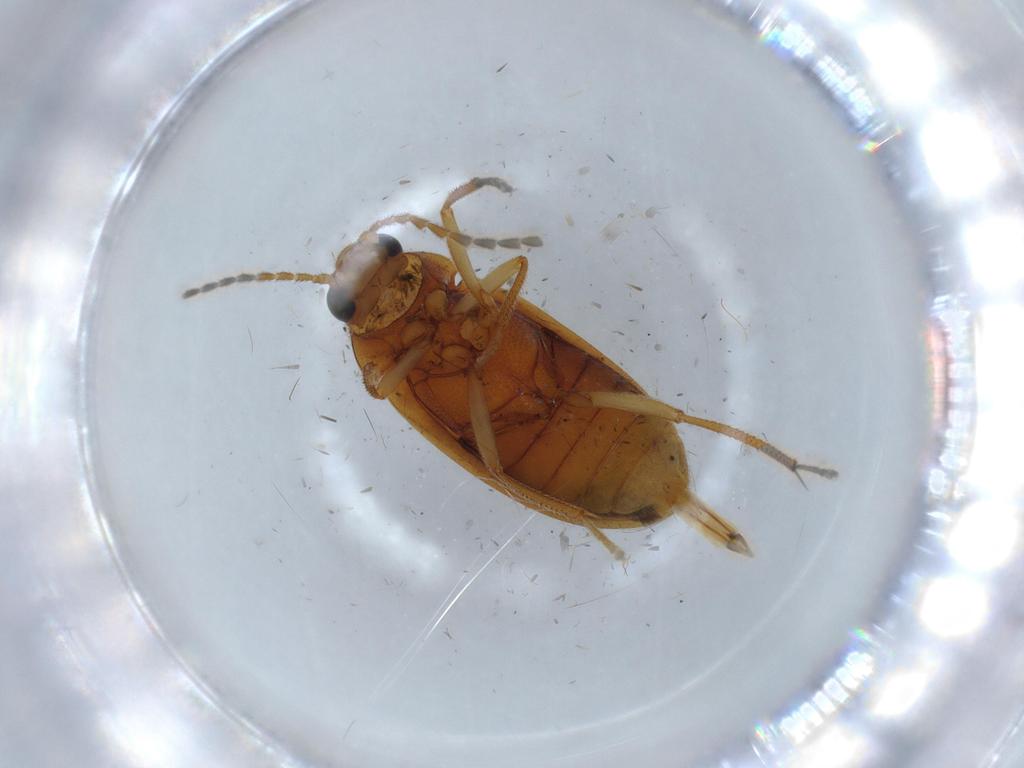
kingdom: Animalia
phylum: Arthropoda
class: Insecta
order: Coleoptera
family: Ptilodactylidae
